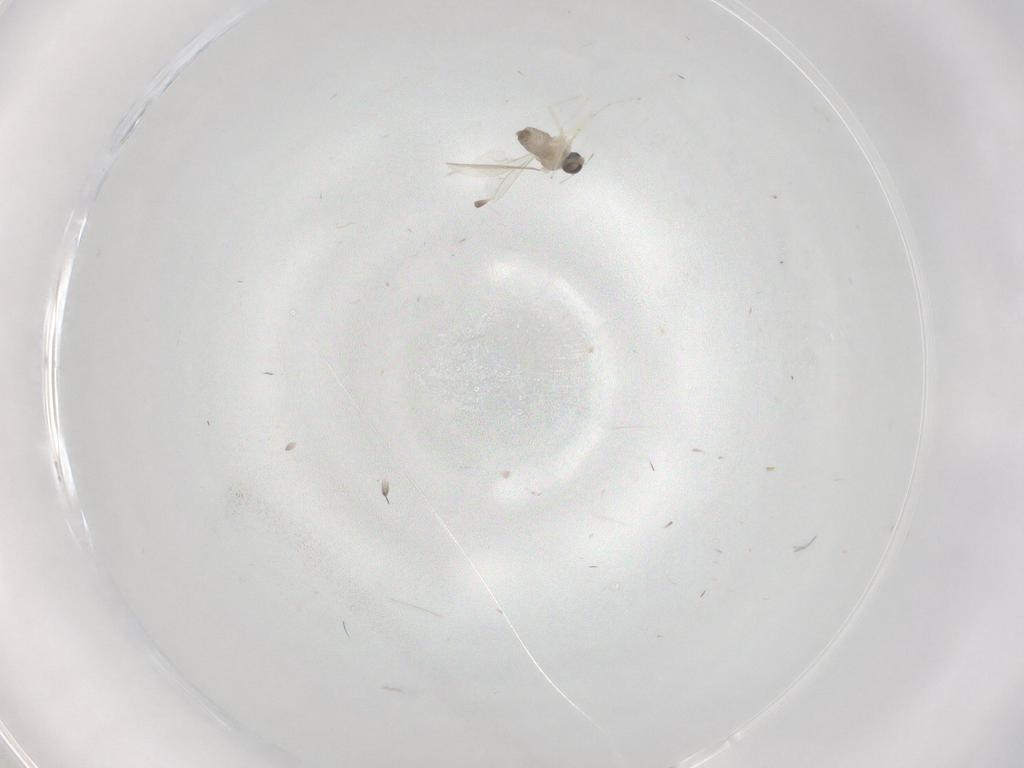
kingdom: Animalia
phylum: Arthropoda
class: Insecta
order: Diptera
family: Cecidomyiidae
